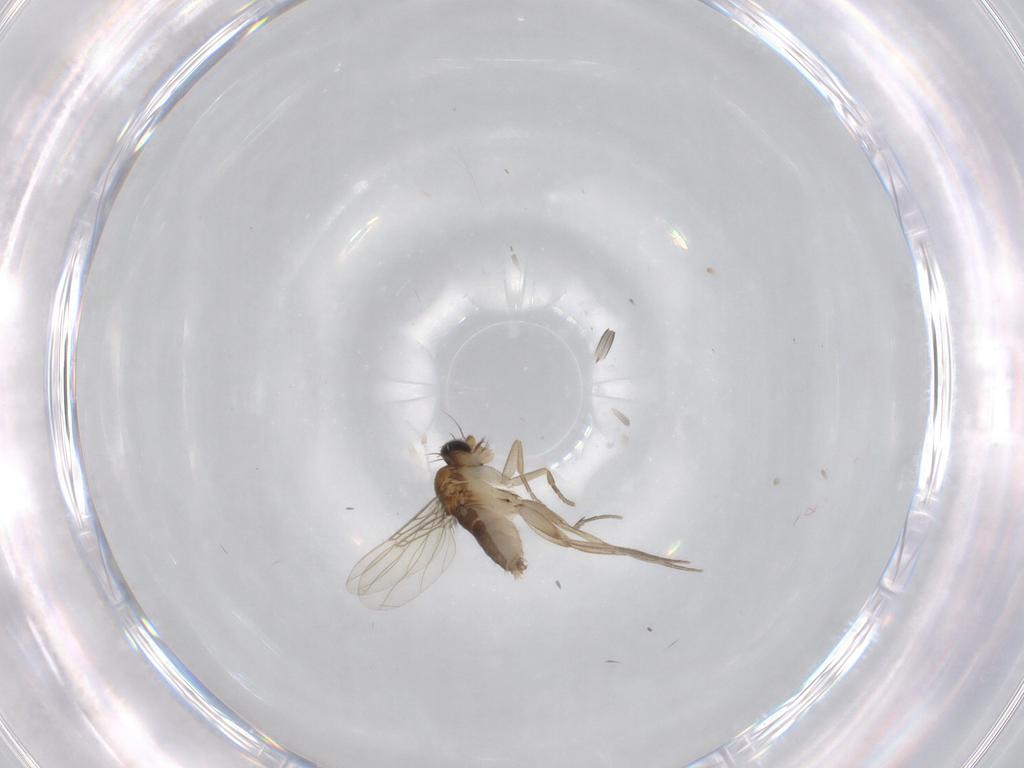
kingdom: Animalia
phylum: Arthropoda
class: Insecta
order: Diptera
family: Phoridae
